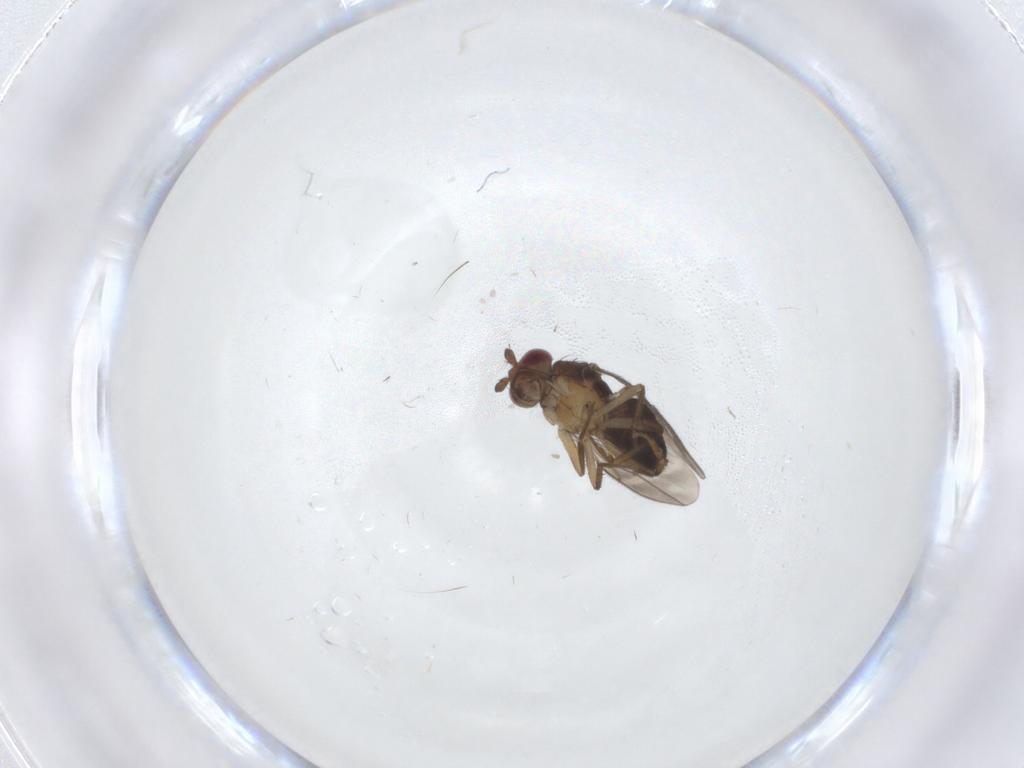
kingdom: Animalia
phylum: Arthropoda
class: Insecta
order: Diptera
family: Sphaeroceridae
